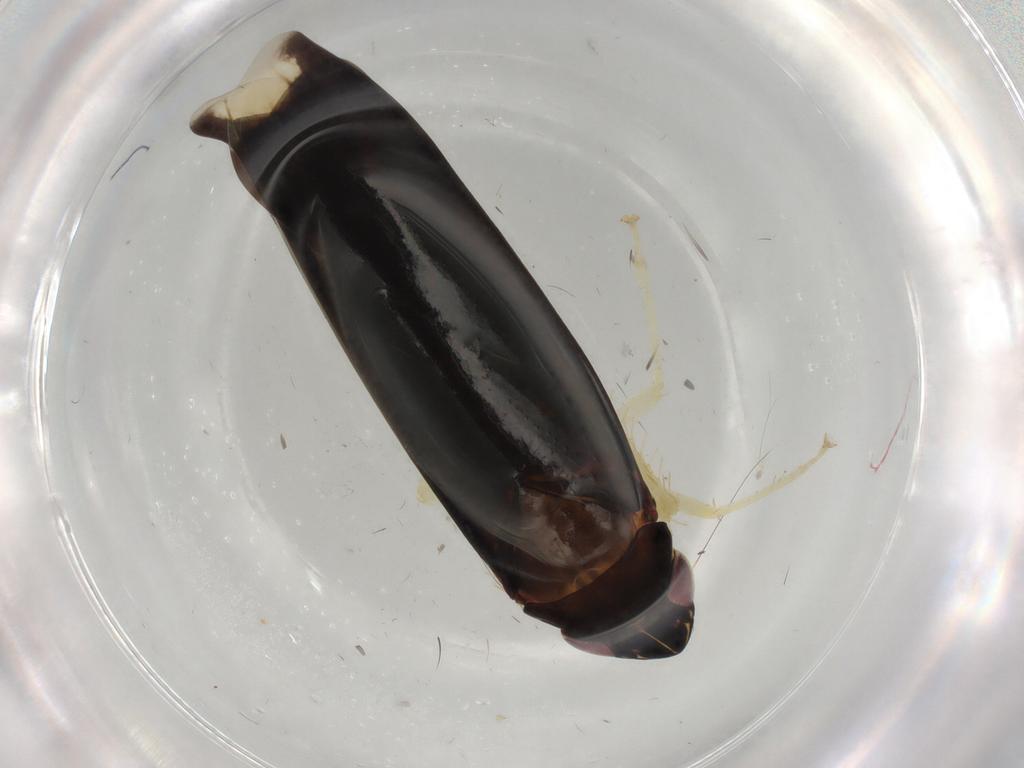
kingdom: Animalia
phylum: Arthropoda
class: Insecta
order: Hemiptera
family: Cicadellidae
